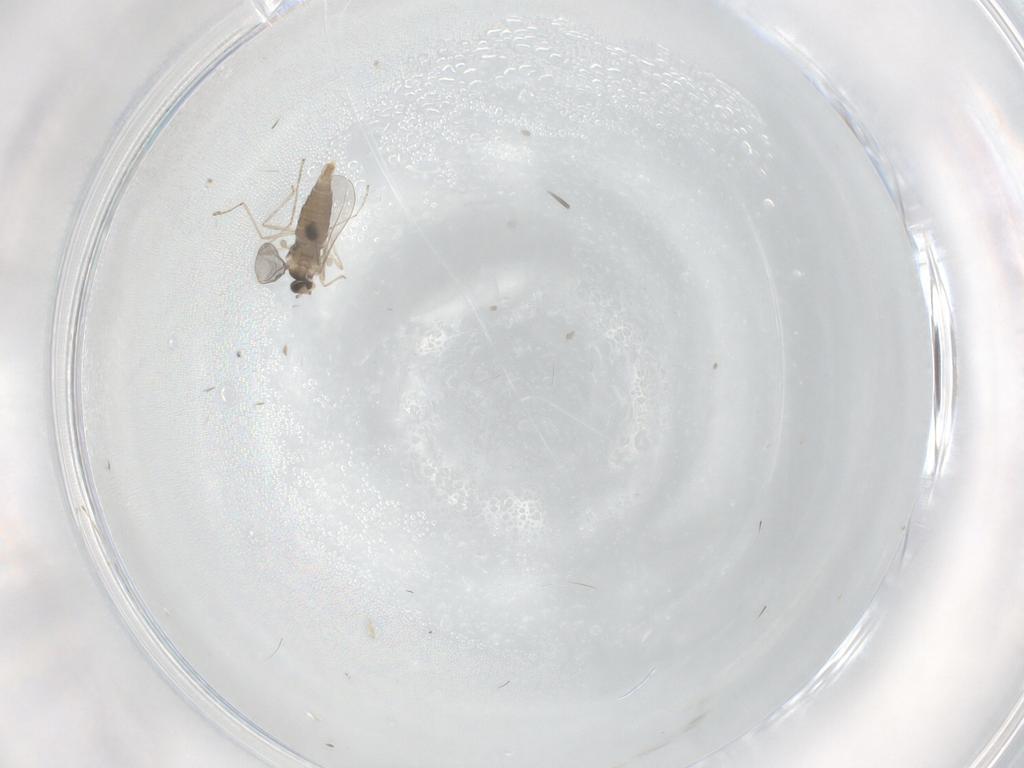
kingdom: Animalia
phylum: Arthropoda
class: Insecta
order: Diptera
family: Cecidomyiidae
